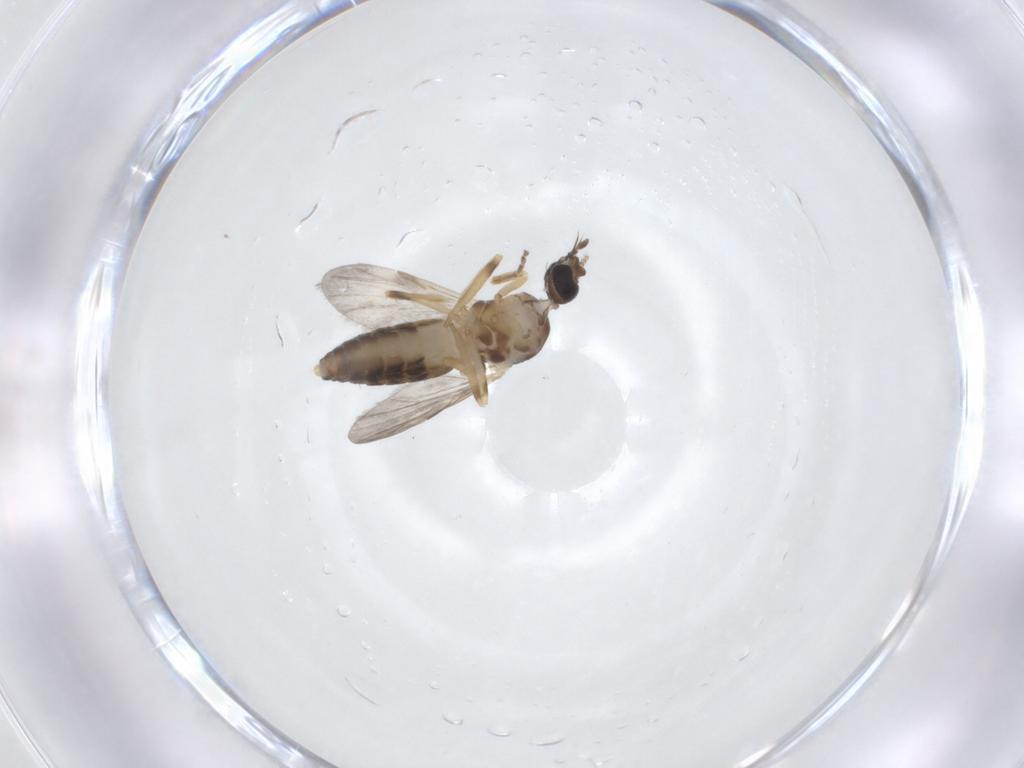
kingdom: Animalia
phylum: Arthropoda
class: Insecta
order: Diptera
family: Ceratopogonidae
